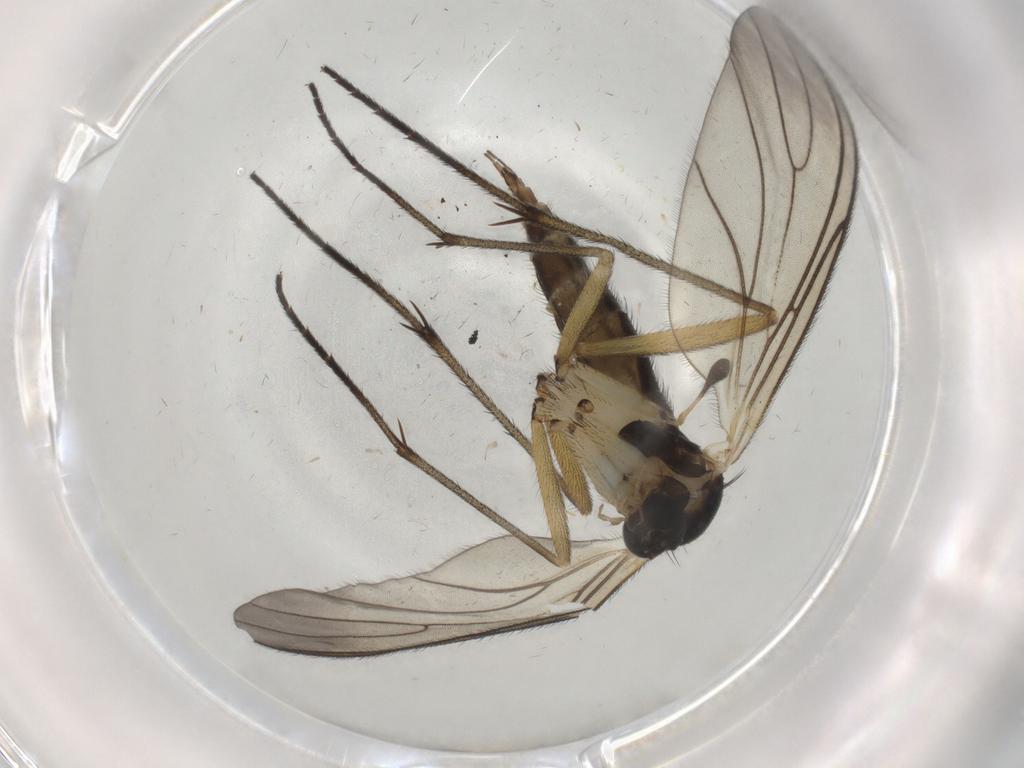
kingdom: Animalia
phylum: Arthropoda
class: Insecta
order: Diptera
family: Sciaridae
